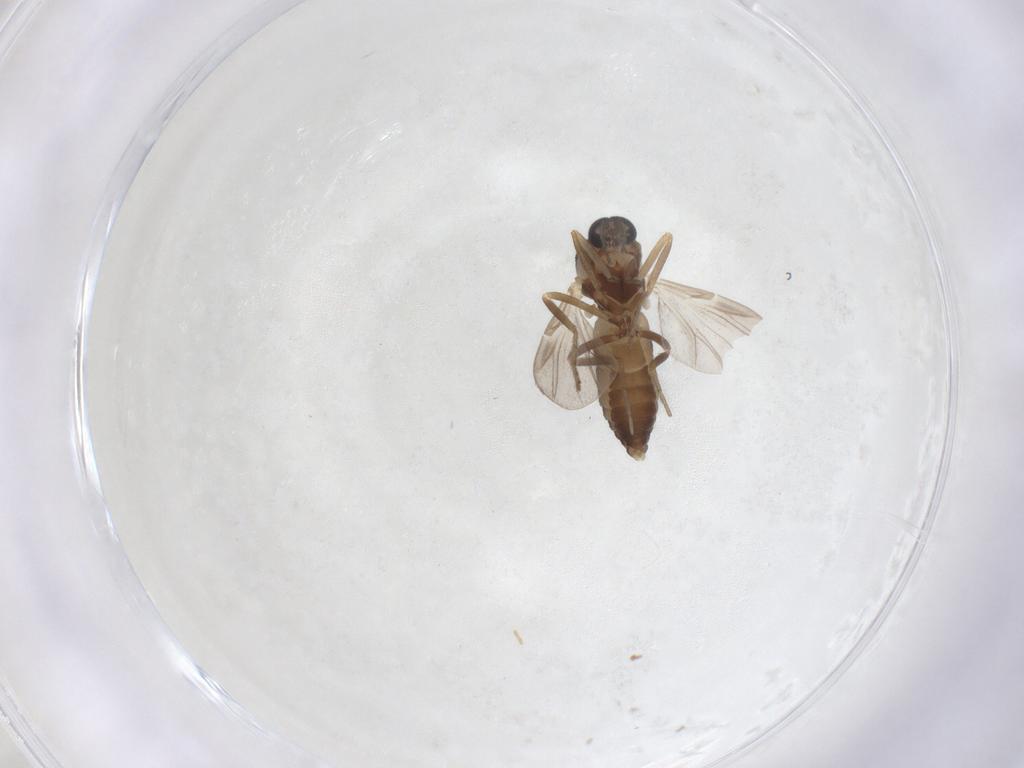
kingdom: Animalia
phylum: Arthropoda
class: Insecta
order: Diptera
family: Ceratopogonidae
